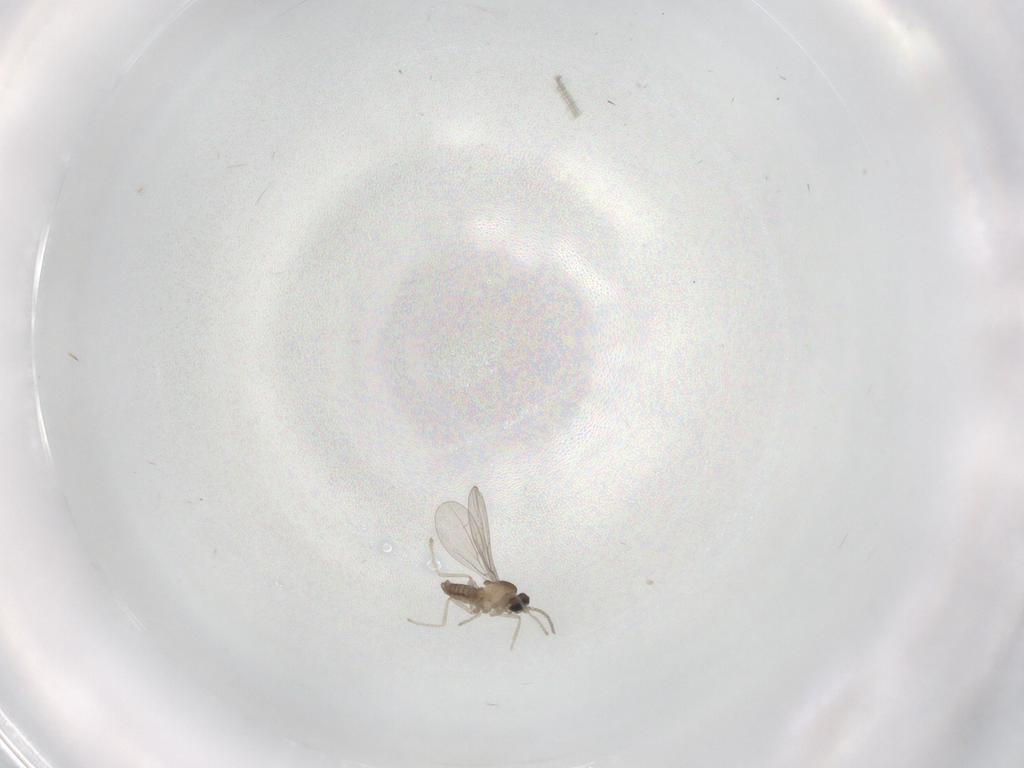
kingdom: Animalia
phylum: Arthropoda
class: Insecta
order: Diptera
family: Cecidomyiidae
